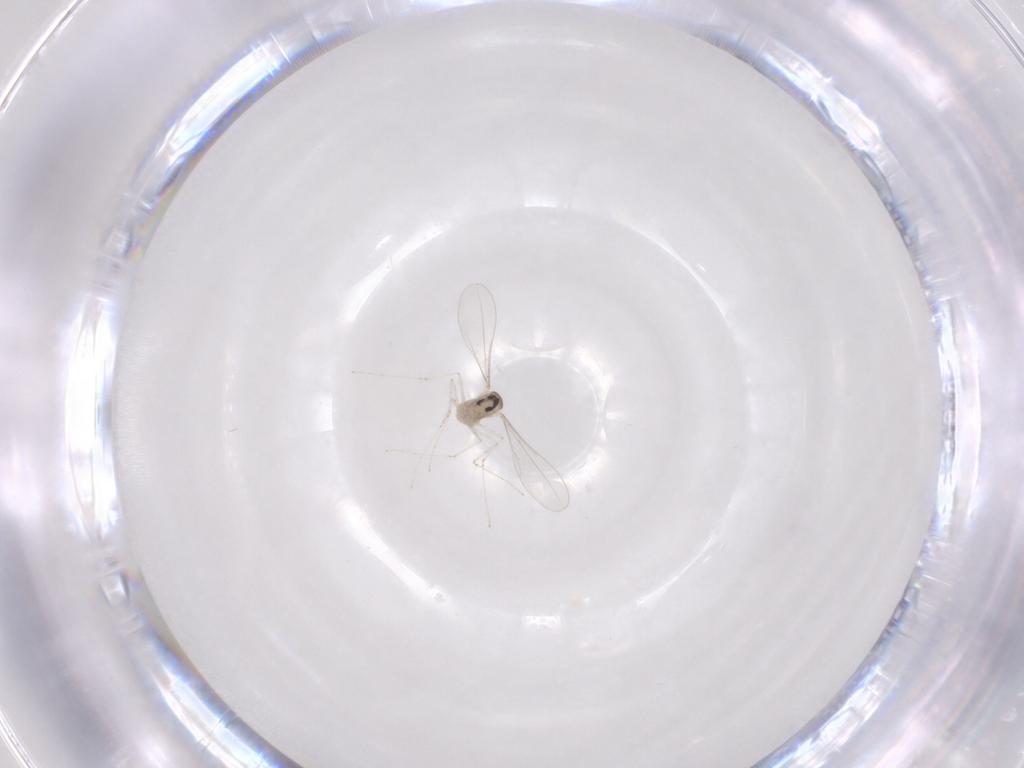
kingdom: Animalia
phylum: Arthropoda
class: Insecta
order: Diptera
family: Cecidomyiidae
